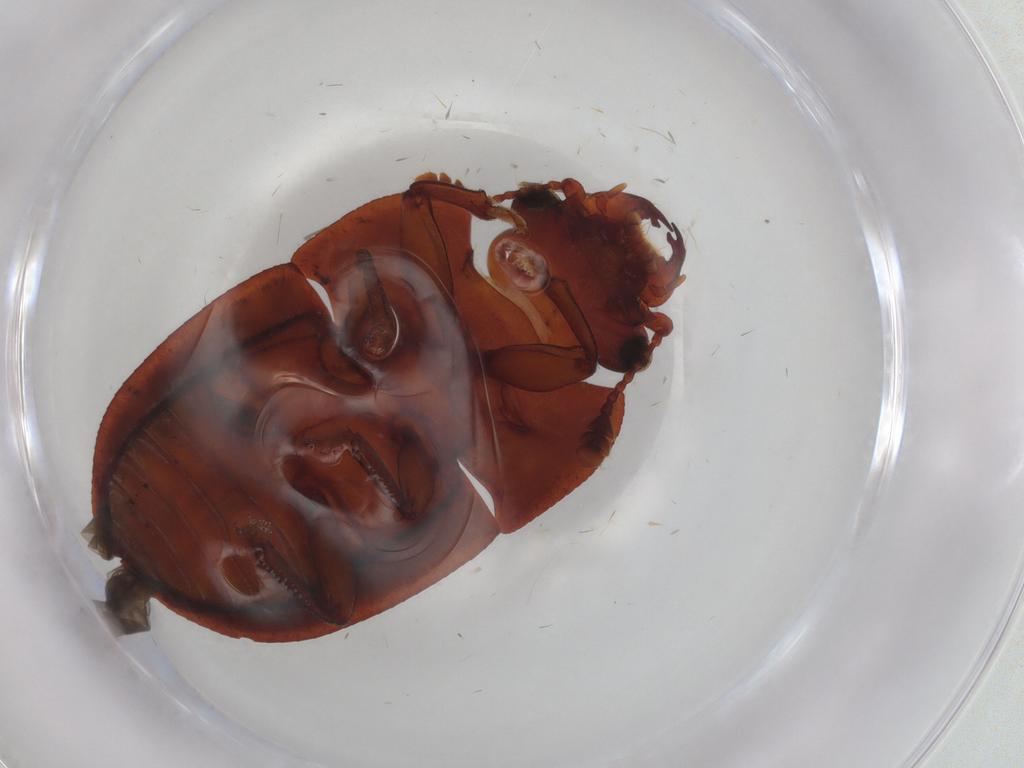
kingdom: Animalia
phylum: Arthropoda
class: Insecta
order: Coleoptera
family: Nitidulidae
